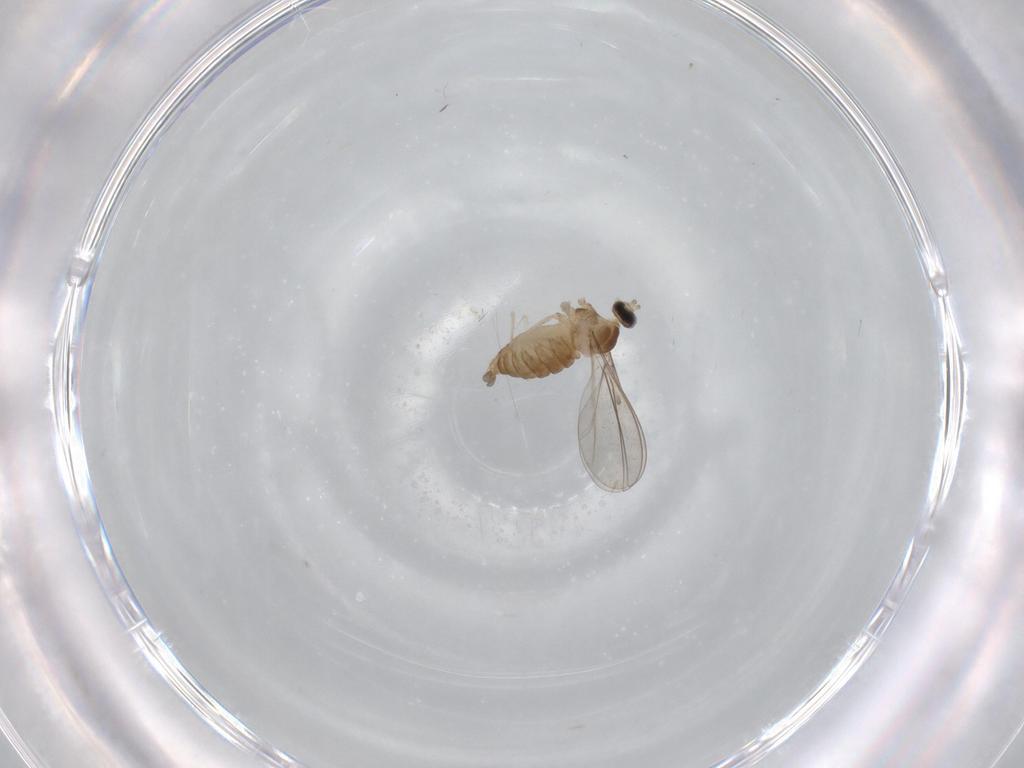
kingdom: Animalia
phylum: Arthropoda
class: Insecta
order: Diptera
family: Cecidomyiidae
